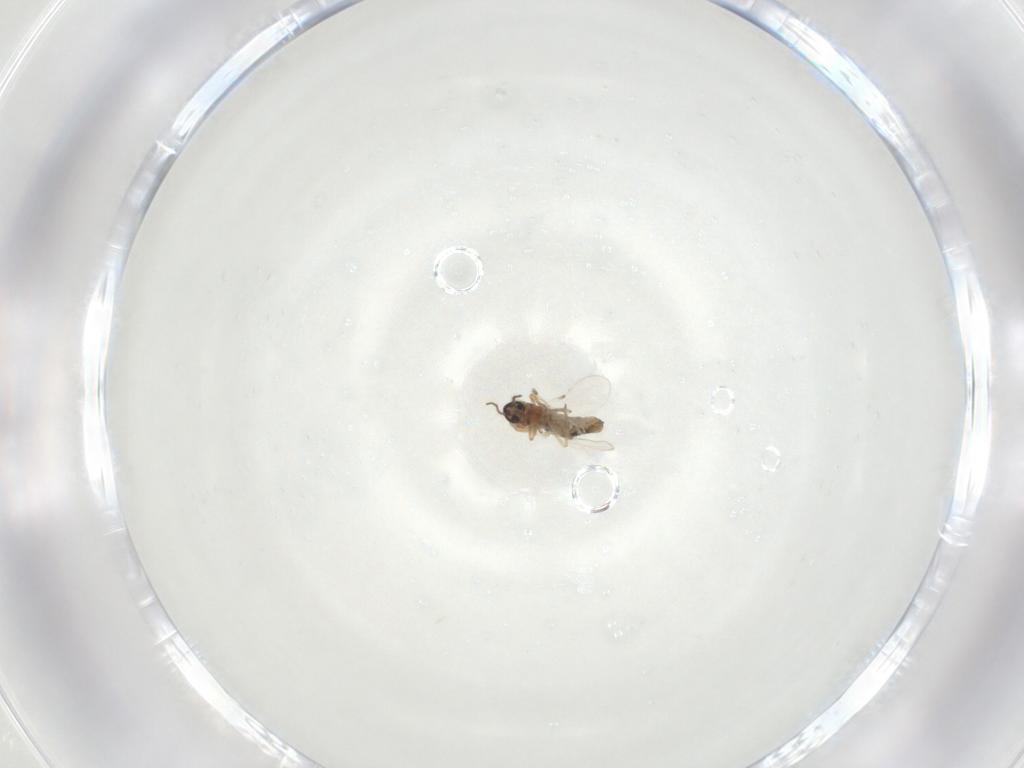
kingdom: Animalia
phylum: Arthropoda
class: Insecta
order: Diptera
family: Ceratopogonidae
